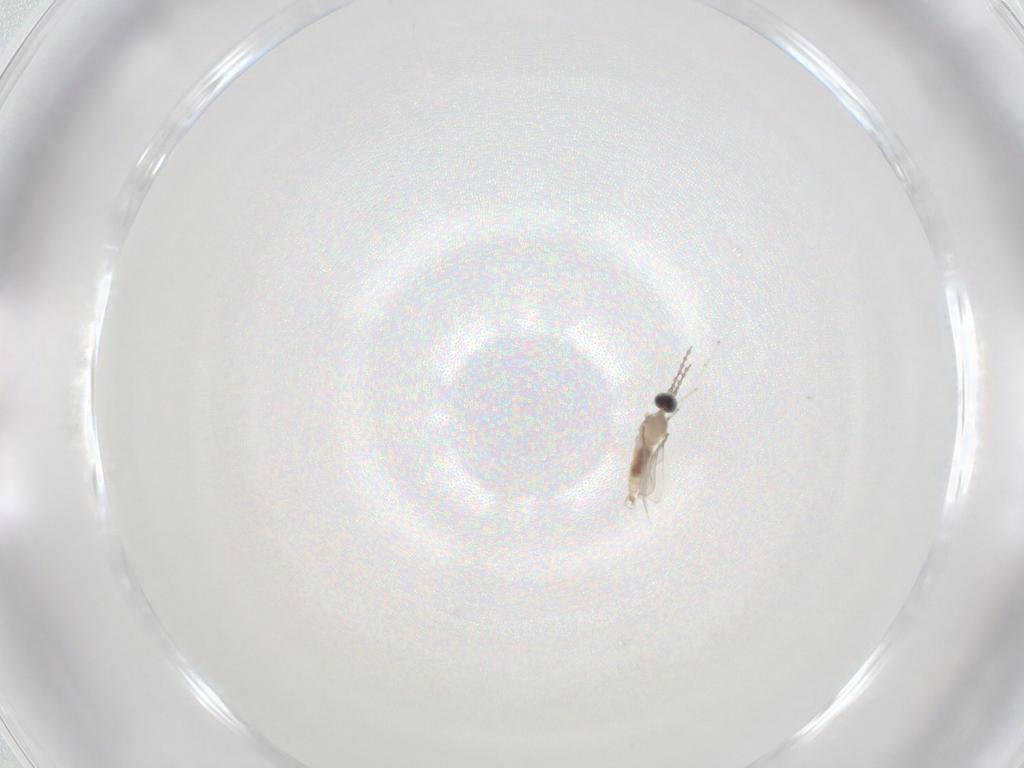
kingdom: Animalia
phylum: Arthropoda
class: Insecta
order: Diptera
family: Cecidomyiidae
